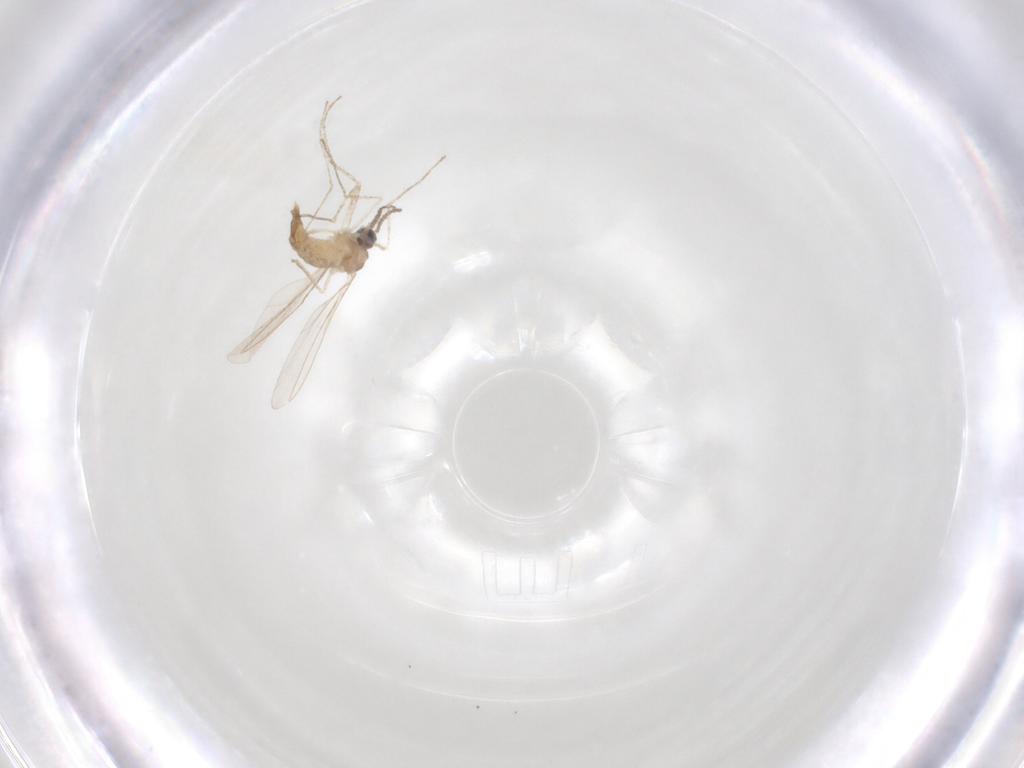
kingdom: Animalia
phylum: Arthropoda
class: Insecta
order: Diptera
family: Cecidomyiidae
